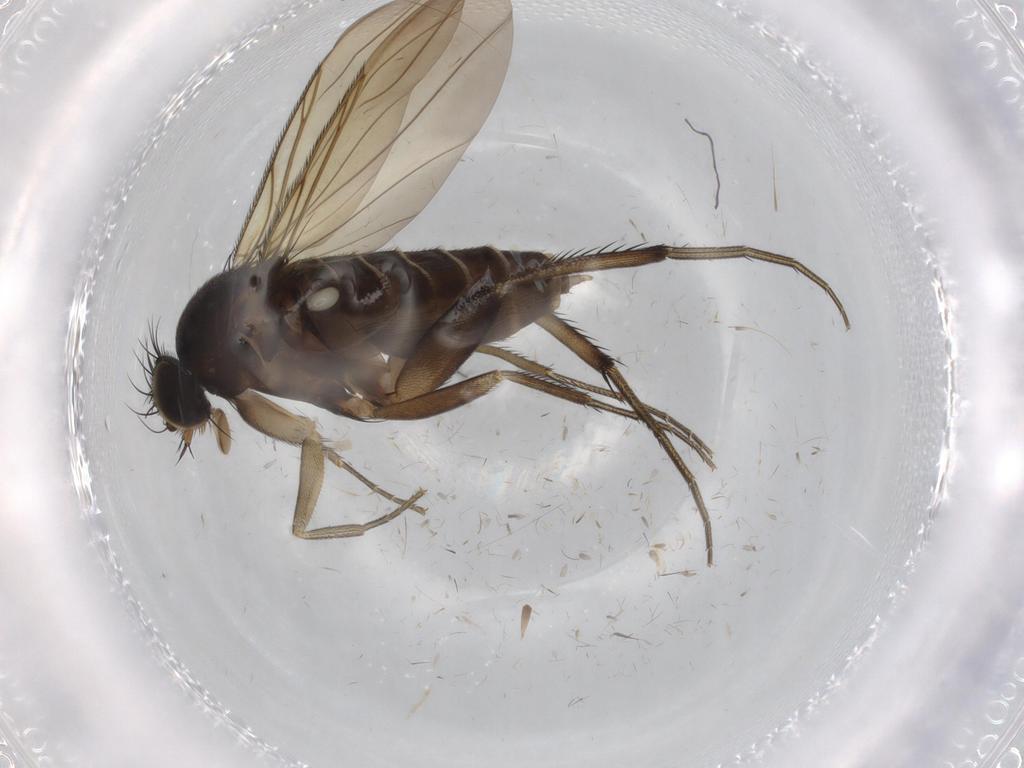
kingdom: Animalia
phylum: Arthropoda
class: Insecta
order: Diptera
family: Phoridae
